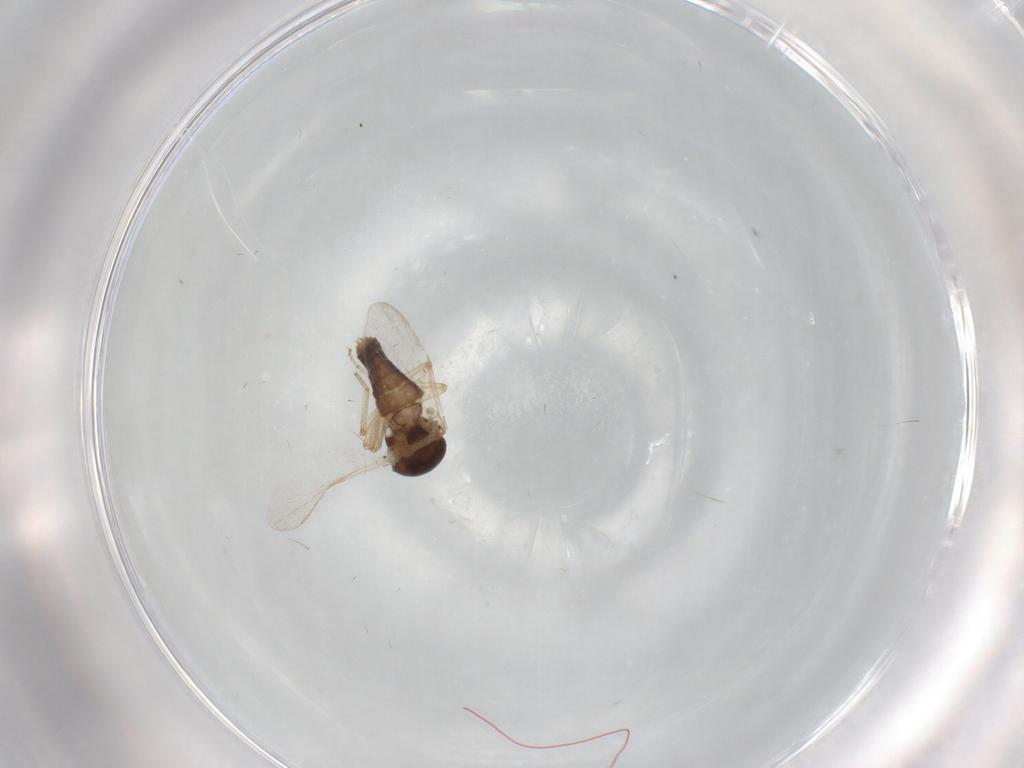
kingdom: Animalia
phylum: Arthropoda
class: Insecta
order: Diptera
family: Ceratopogonidae
